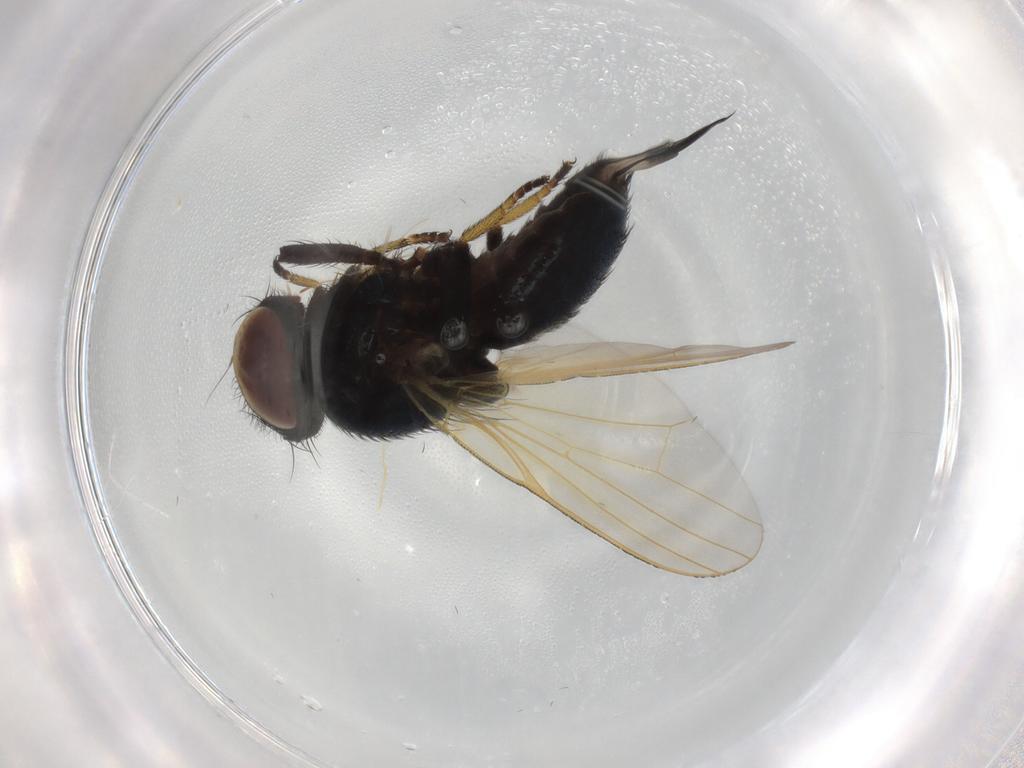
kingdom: Animalia
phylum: Arthropoda
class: Insecta
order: Diptera
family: Lonchaeidae
